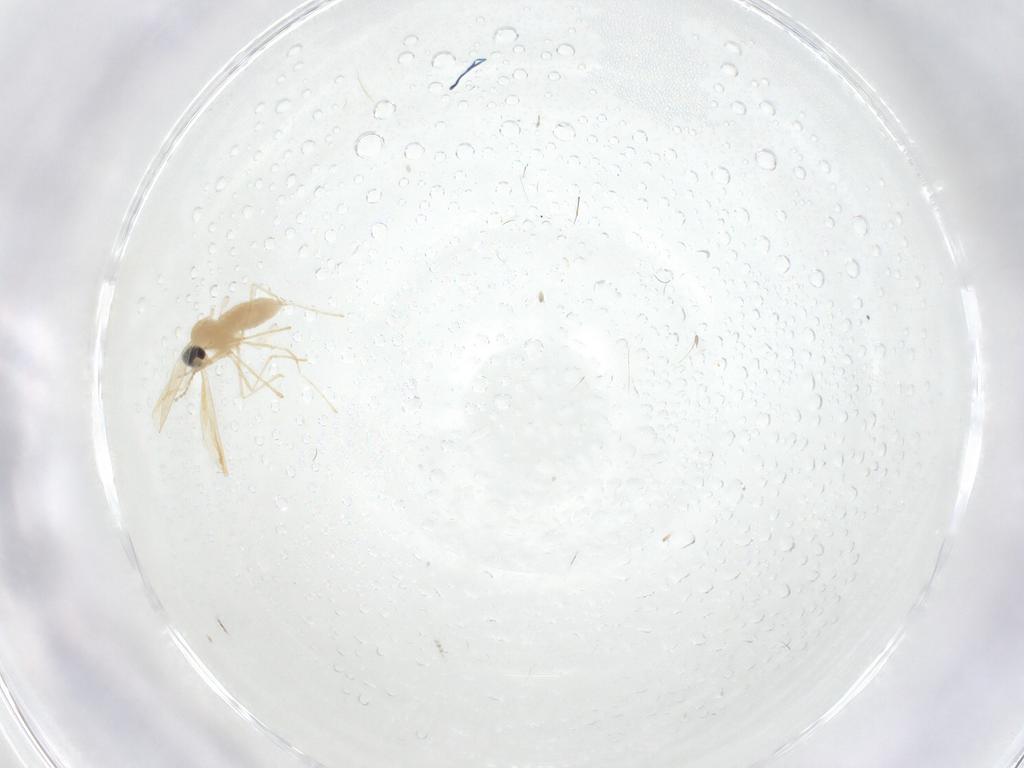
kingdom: Animalia
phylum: Arthropoda
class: Insecta
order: Diptera
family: Cecidomyiidae
